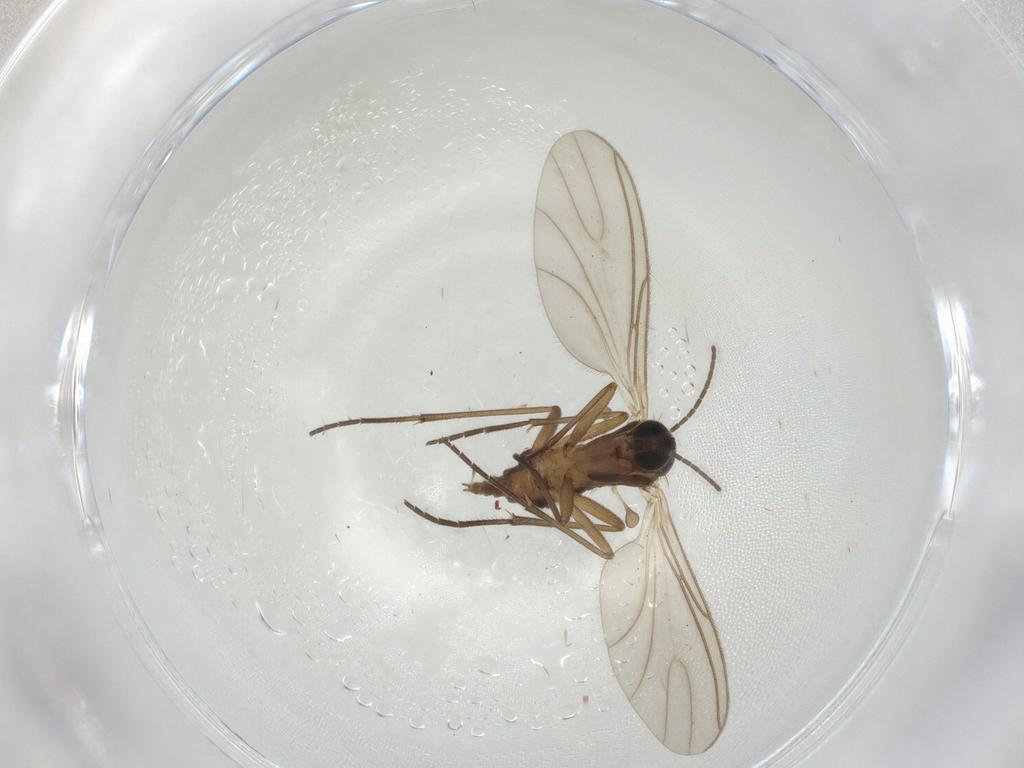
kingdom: Animalia
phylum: Arthropoda
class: Insecta
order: Diptera
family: Sciaridae
